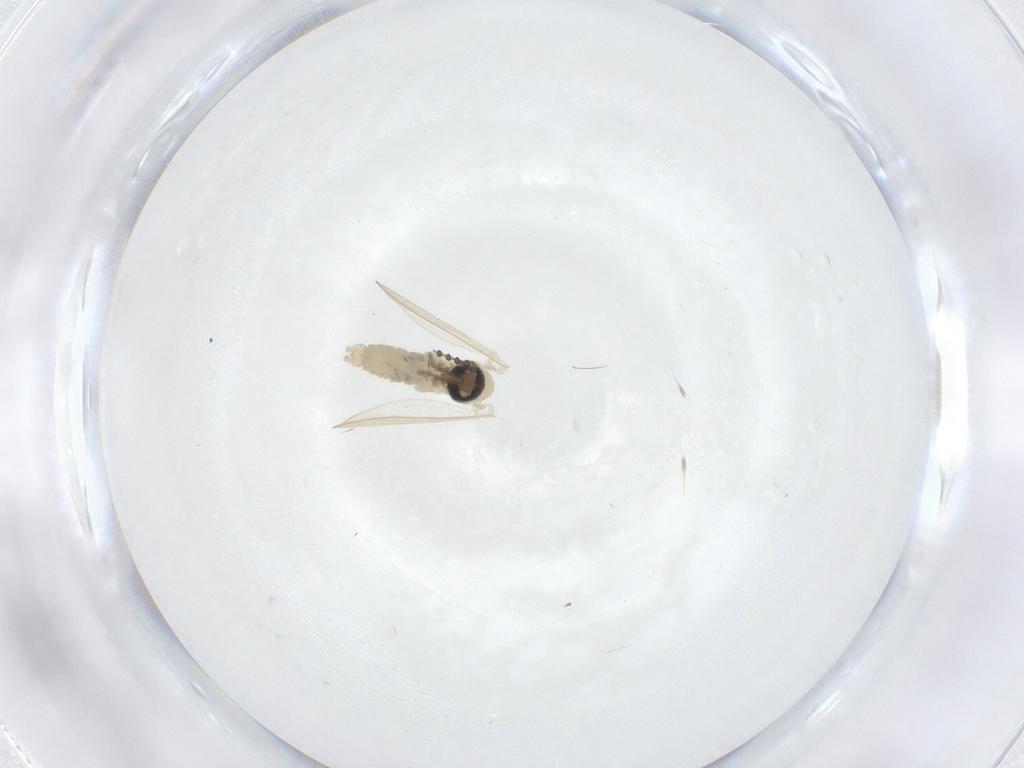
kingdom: Animalia
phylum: Arthropoda
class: Insecta
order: Diptera
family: Psychodidae
